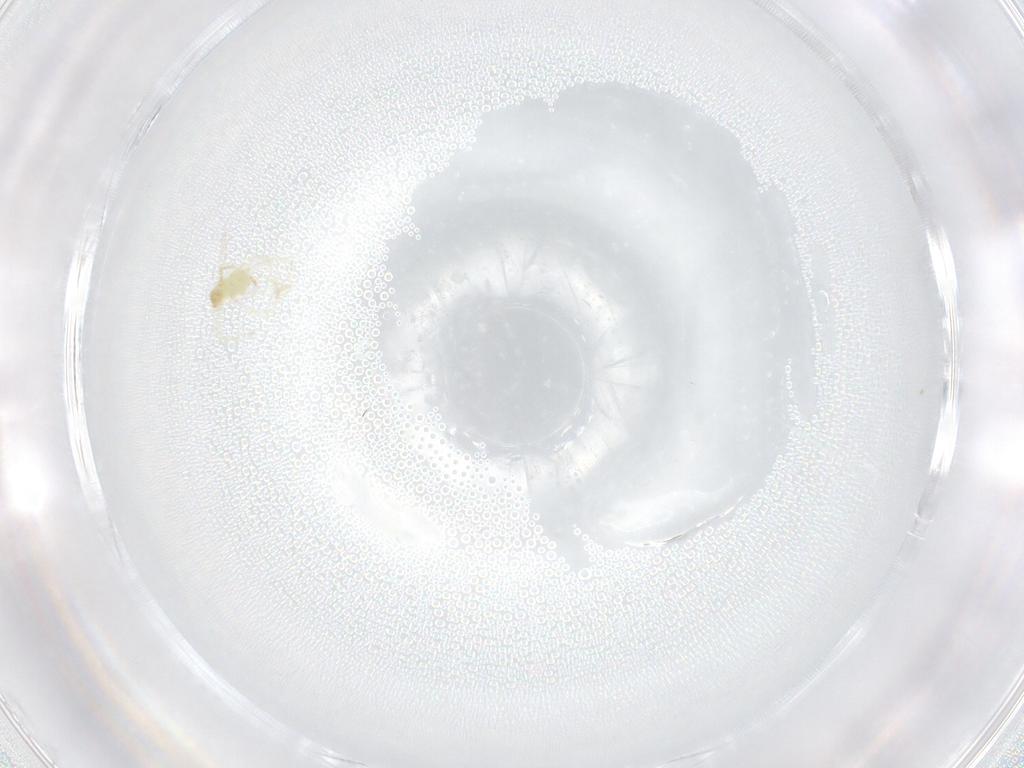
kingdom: Animalia
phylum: Arthropoda
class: Arachnida
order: Trombidiformes
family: Erythraeidae
